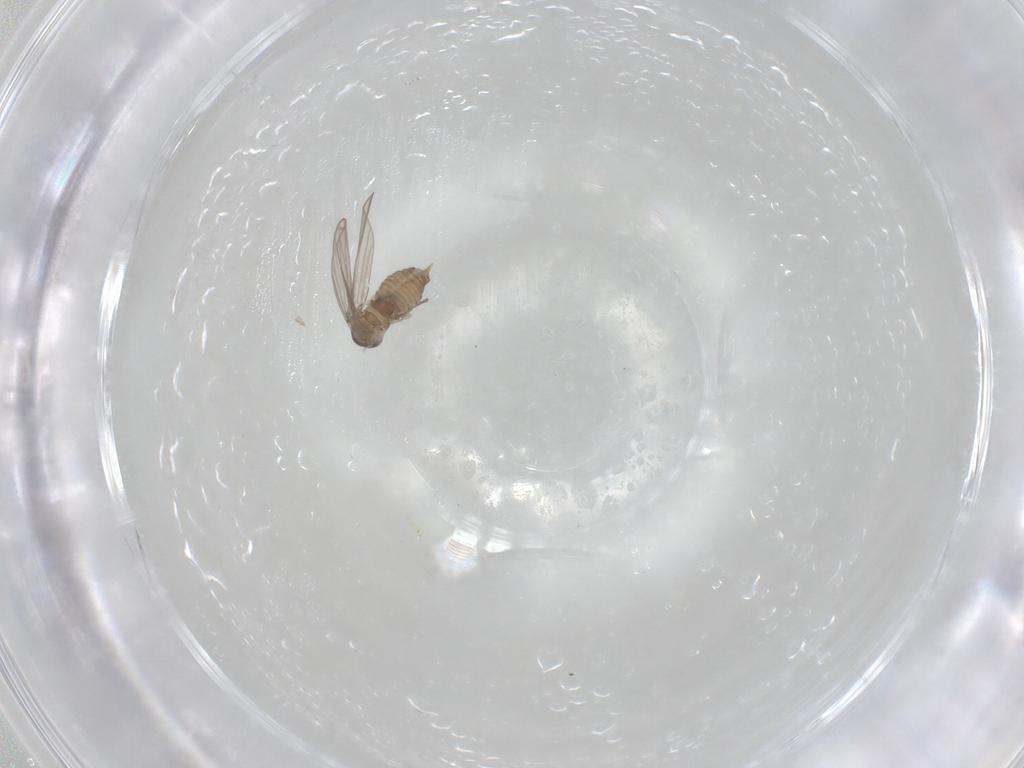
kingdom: Animalia
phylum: Arthropoda
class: Insecta
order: Diptera
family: Psychodidae
